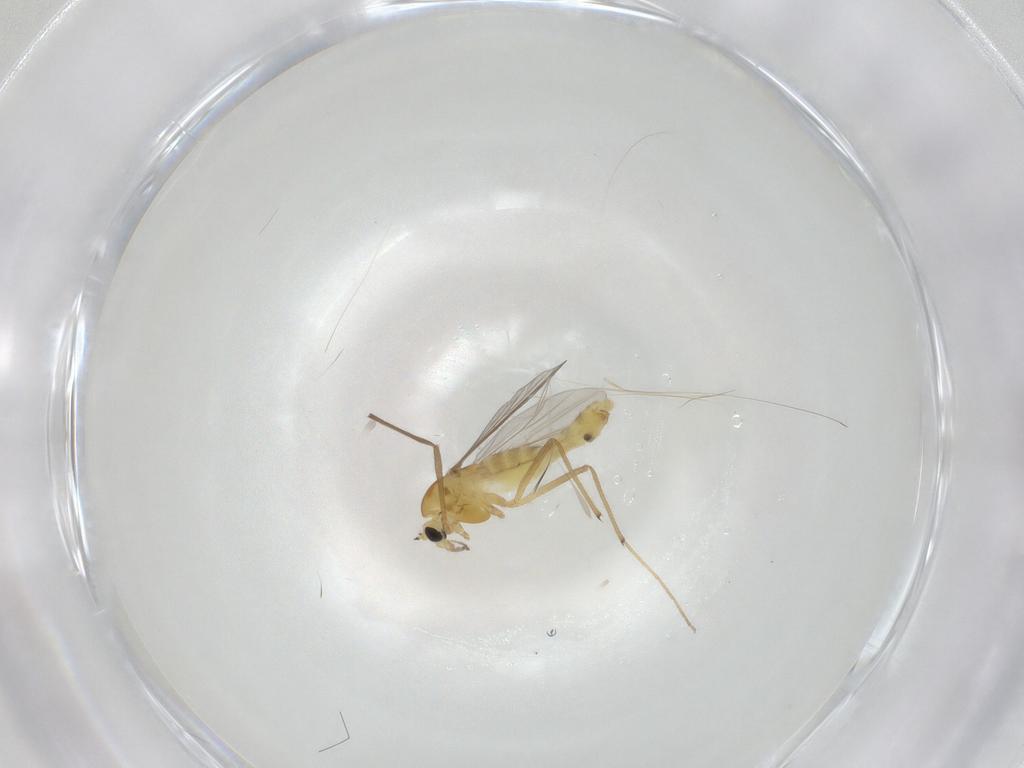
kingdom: Animalia
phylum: Arthropoda
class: Insecta
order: Diptera
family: Chironomidae
